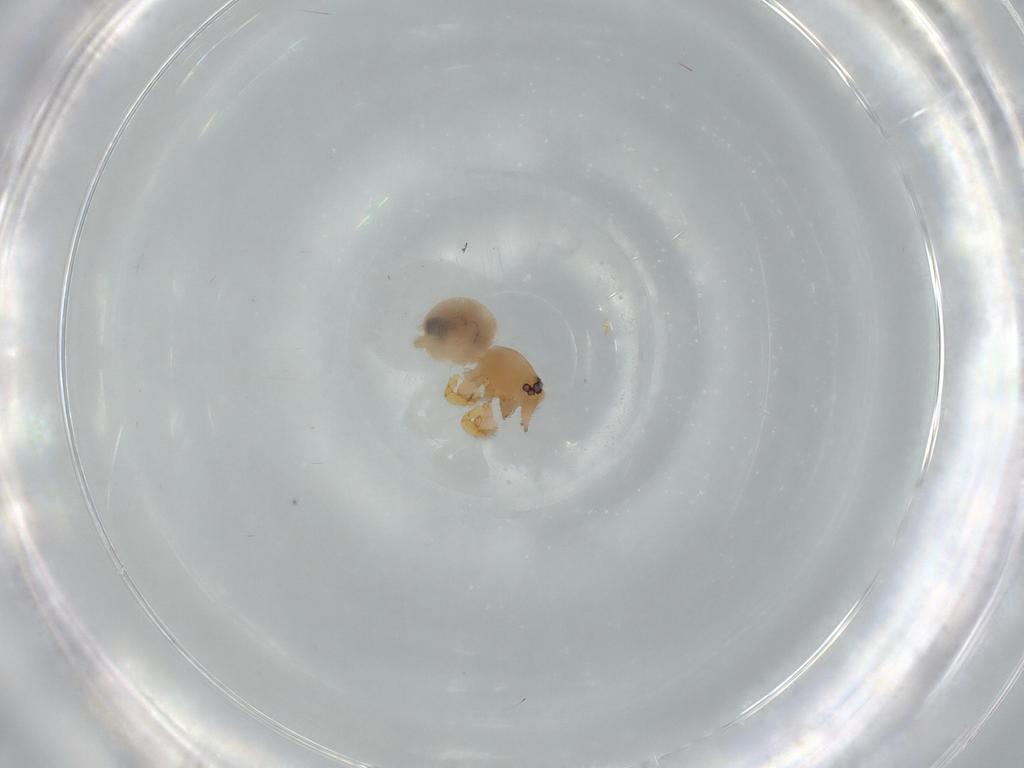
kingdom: Animalia
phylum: Arthropoda
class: Arachnida
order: Araneae
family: Oonopidae
